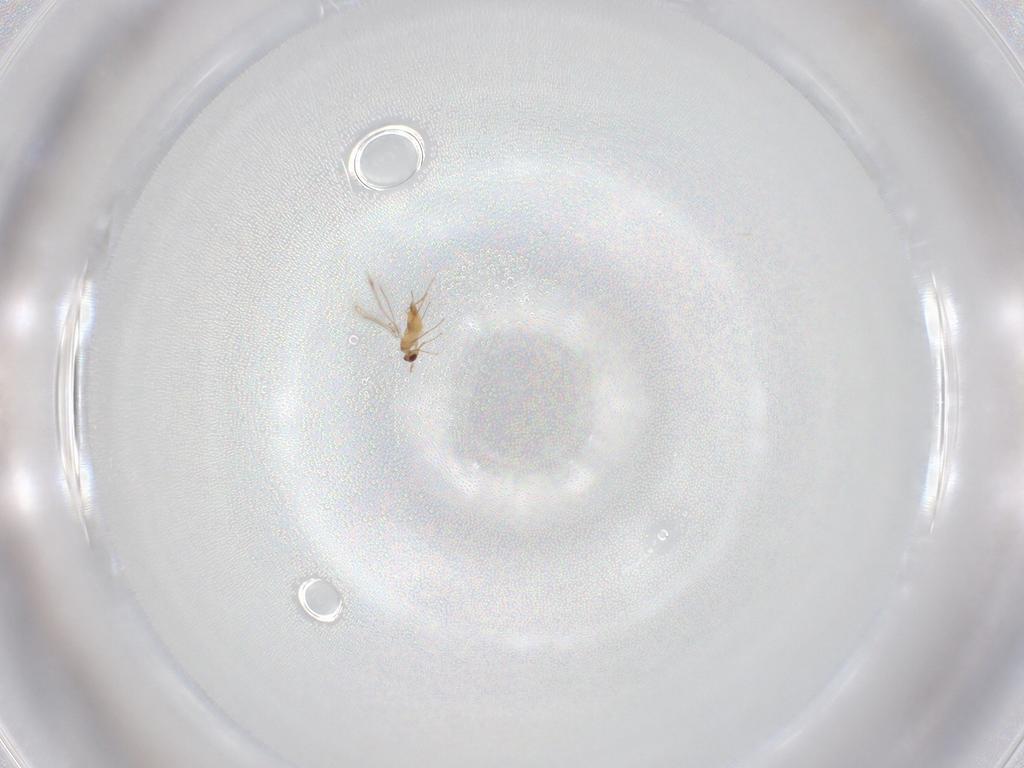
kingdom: Animalia
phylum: Arthropoda
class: Insecta
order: Hymenoptera
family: Mymaridae
